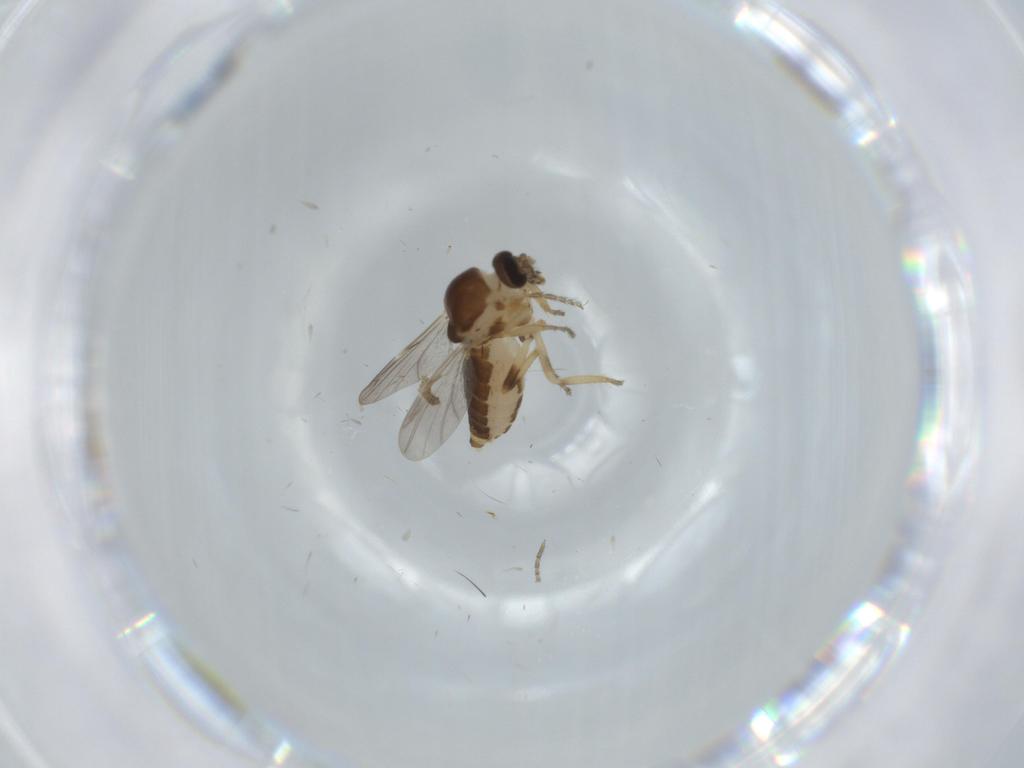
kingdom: Animalia
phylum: Arthropoda
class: Insecta
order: Diptera
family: Ceratopogonidae
